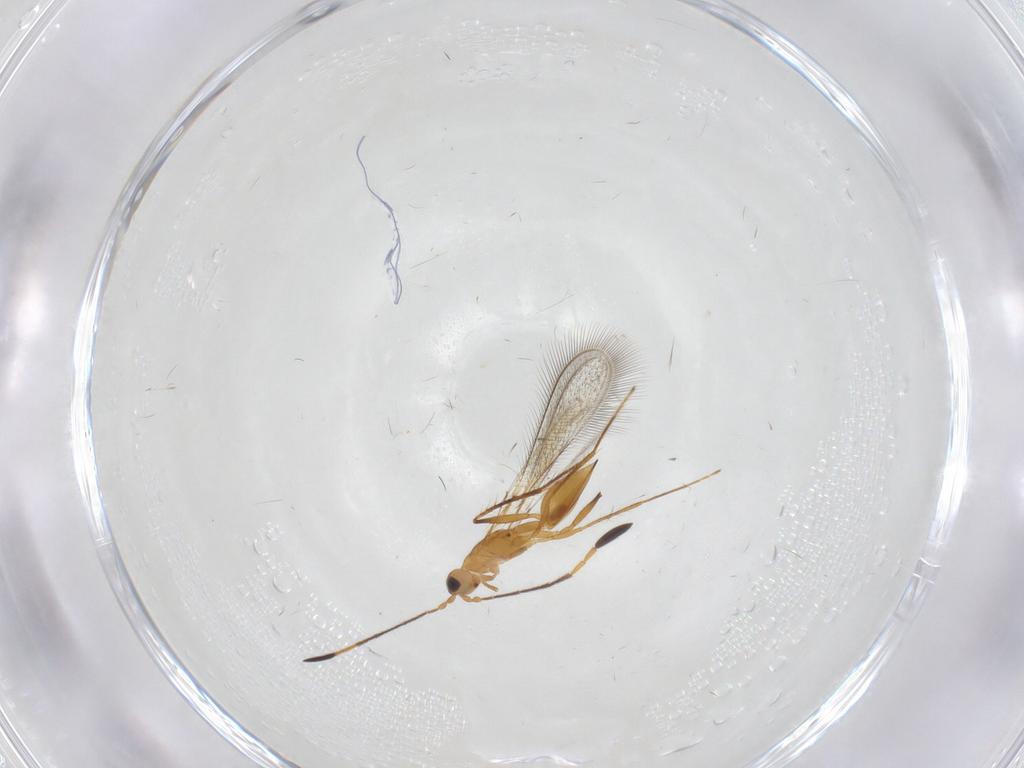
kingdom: Animalia
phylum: Arthropoda
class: Insecta
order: Hymenoptera
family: Mymaridae
